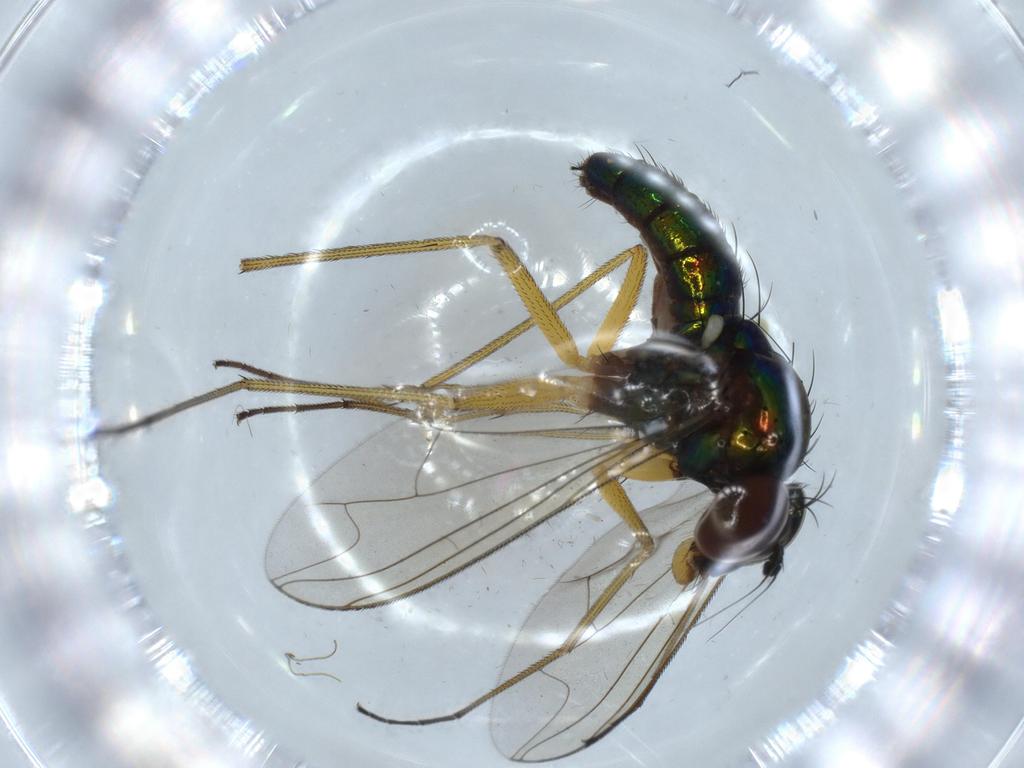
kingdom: Animalia
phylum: Arthropoda
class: Insecta
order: Diptera
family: Dolichopodidae
